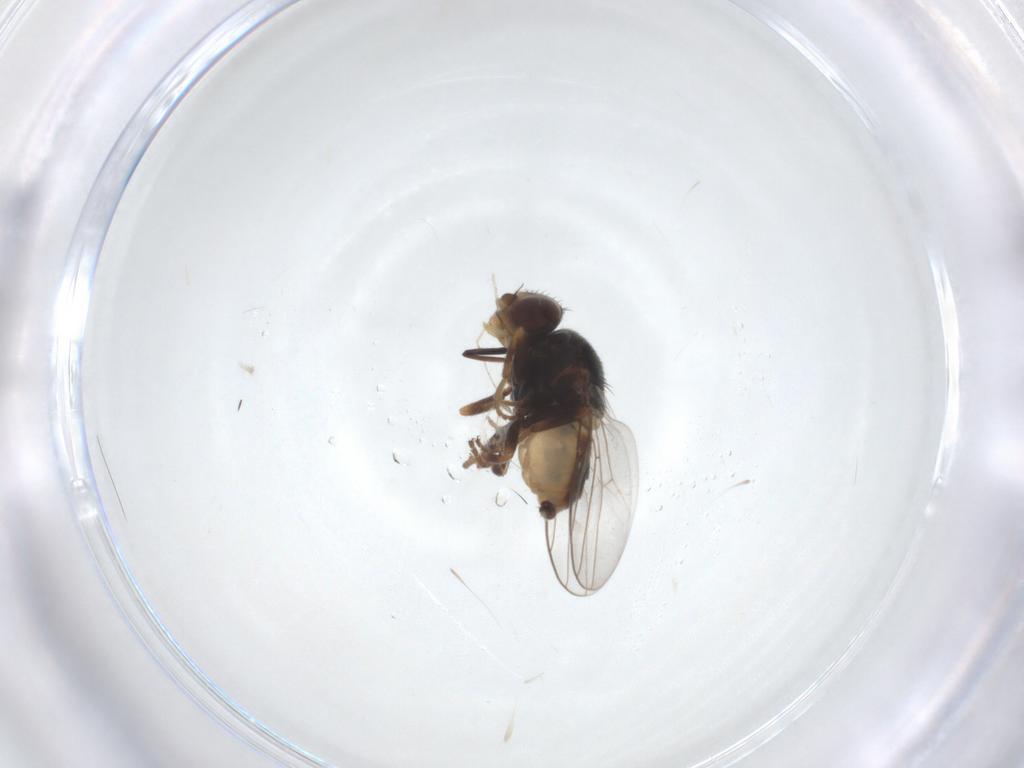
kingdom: Animalia
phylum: Arthropoda
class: Insecta
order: Diptera
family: Chloropidae
